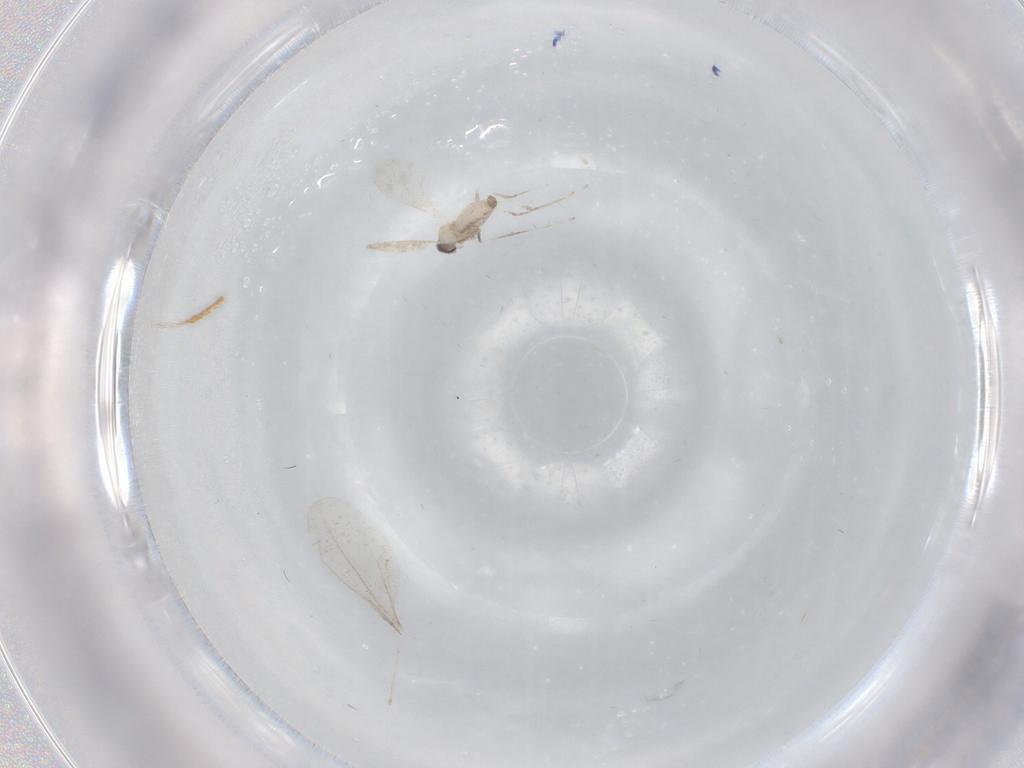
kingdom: Animalia
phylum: Arthropoda
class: Insecta
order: Diptera
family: Cecidomyiidae
